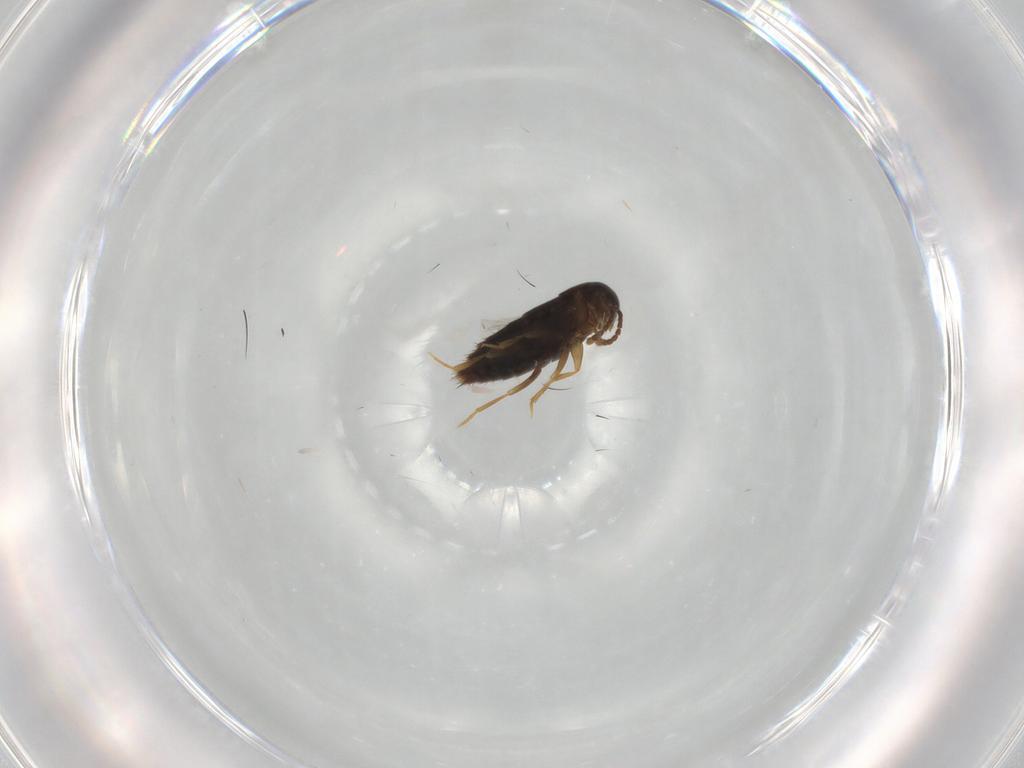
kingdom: Animalia
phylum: Arthropoda
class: Insecta
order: Coleoptera
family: Staphylinidae
